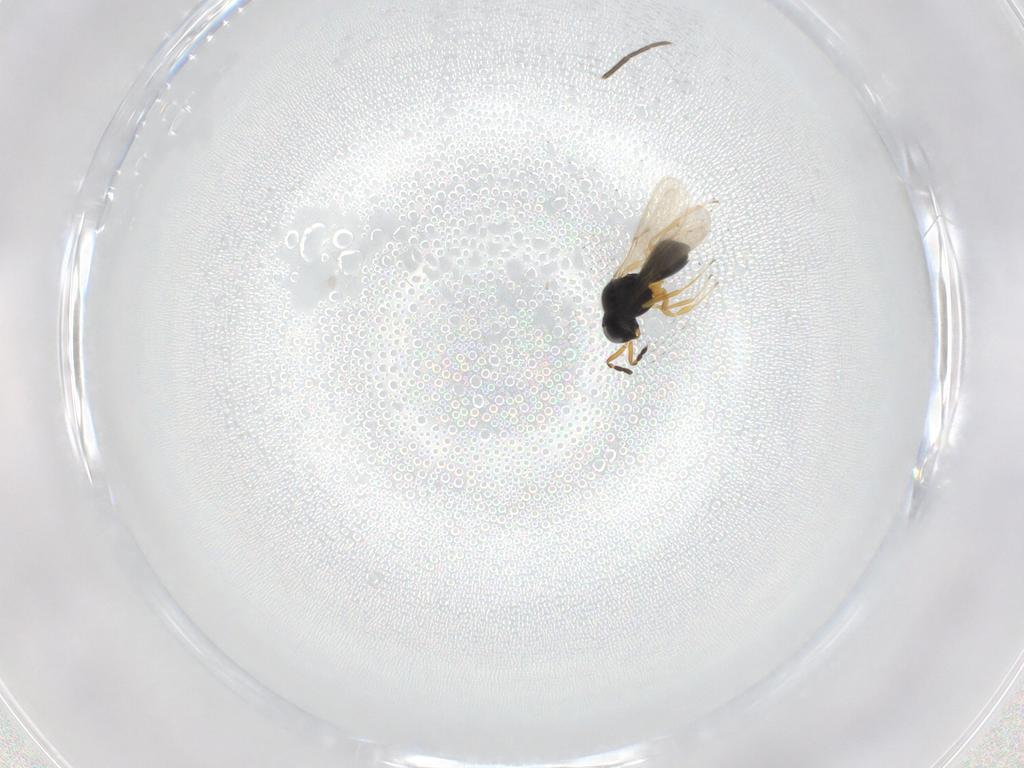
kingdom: Animalia
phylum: Arthropoda
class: Insecta
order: Hymenoptera
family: Scelionidae
